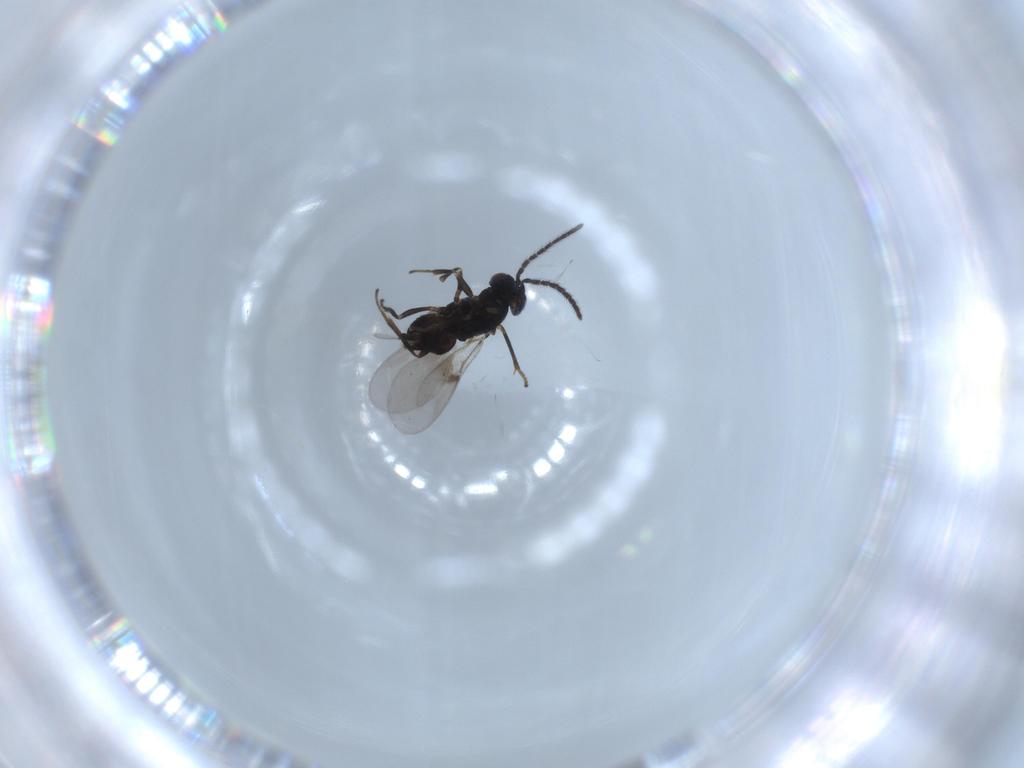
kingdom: Animalia
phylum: Arthropoda
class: Insecta
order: Hymenoptera
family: Encyrtidae
